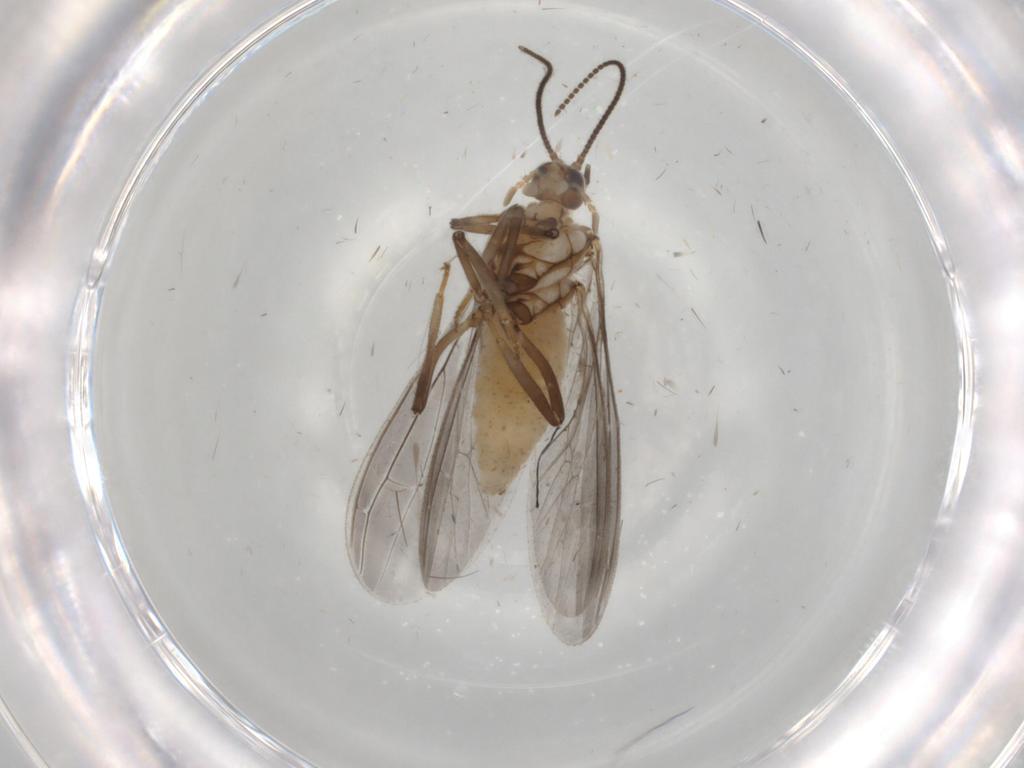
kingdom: Animalia
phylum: Arthropoda
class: Insecta
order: Neuroptera
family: Coniopterygidae
